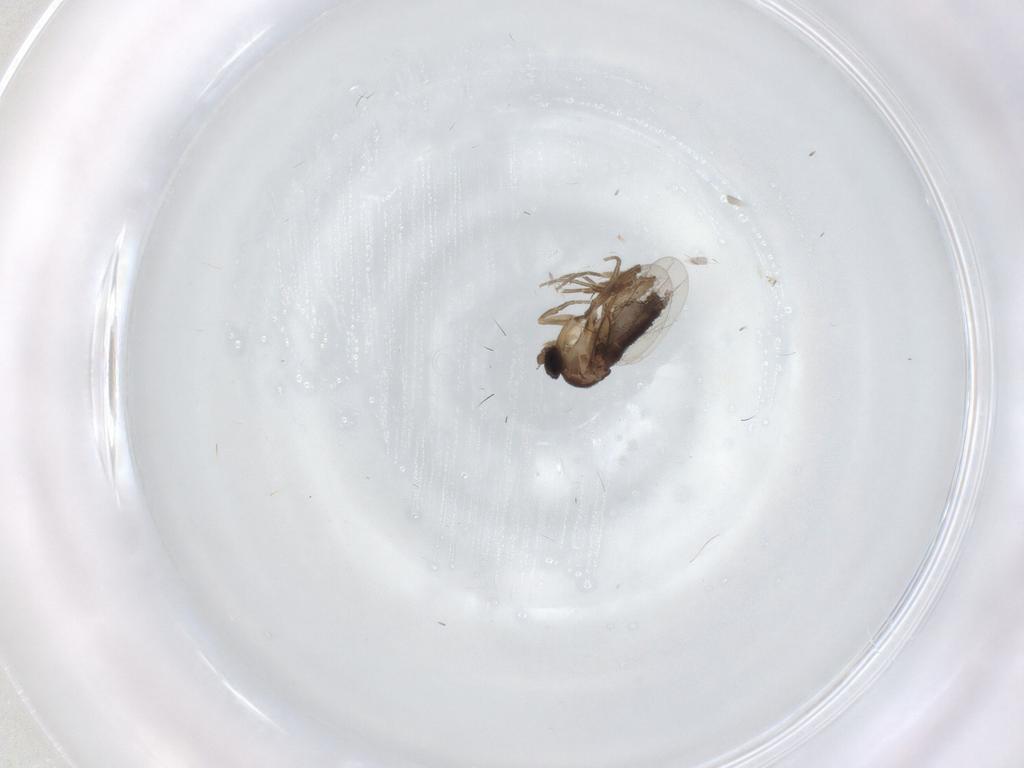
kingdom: Animalia
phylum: Arthropoda
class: Insecta
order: Diptera
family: Phoridae
